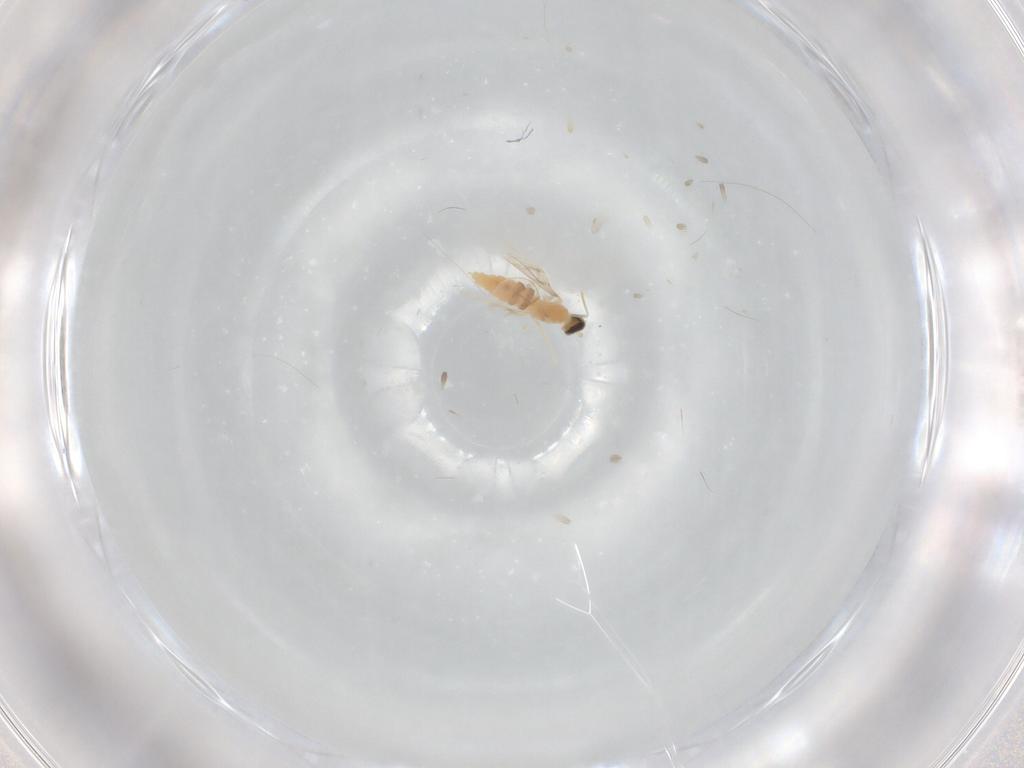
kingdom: Animalia
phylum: Arthropoda
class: Insecta
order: Diptera
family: Cecidomyiidae
